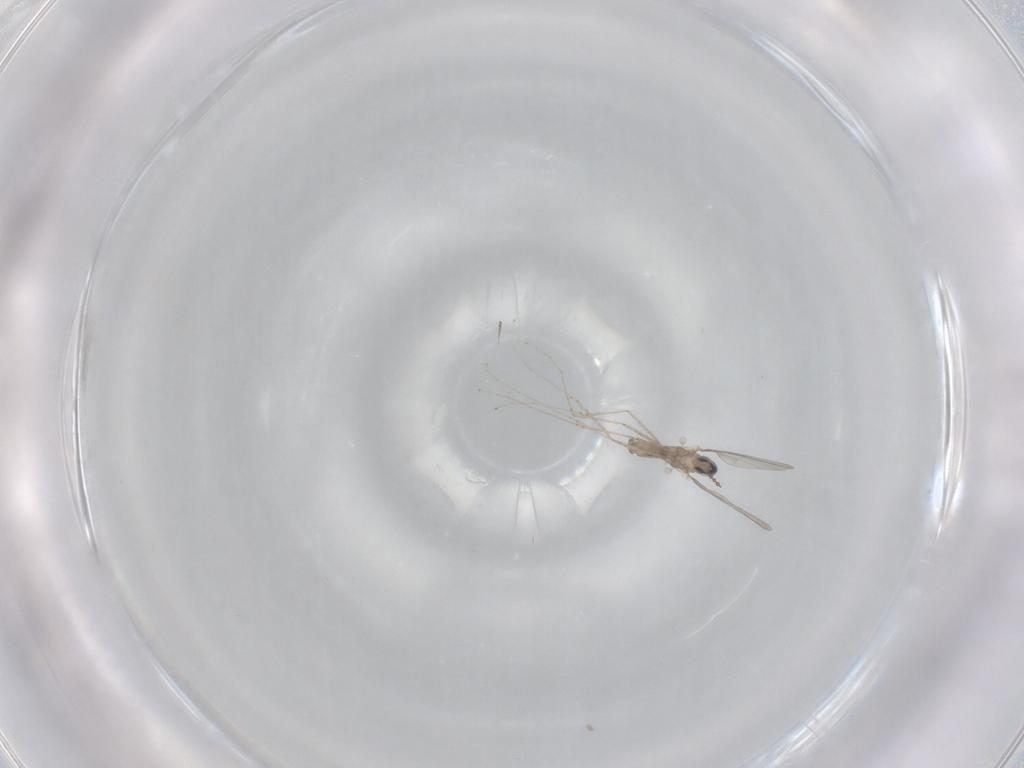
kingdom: Animalia
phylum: Arthropoda
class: Insecta
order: Diptera
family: Cecidomyiidae
